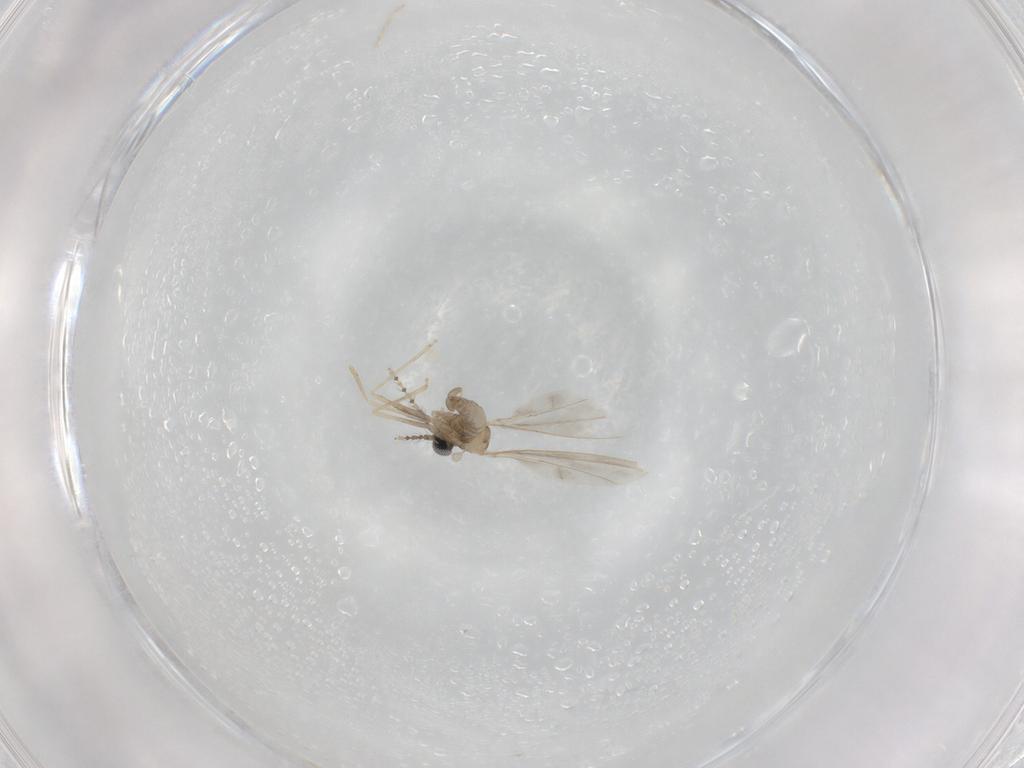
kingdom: Animalia
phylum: Arthropoda
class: Insecta
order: Diptera
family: Cecidomyiidae
